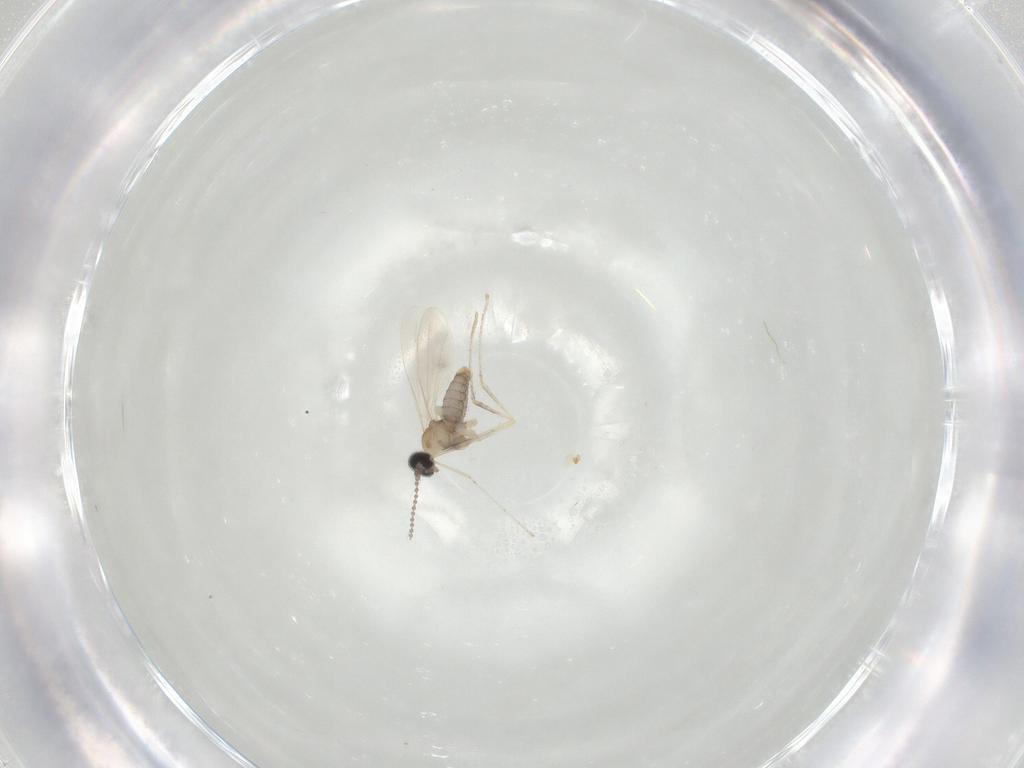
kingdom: Animalia
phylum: Arthropoda
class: Insecta
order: Diptera
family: Cecidomyiidae
